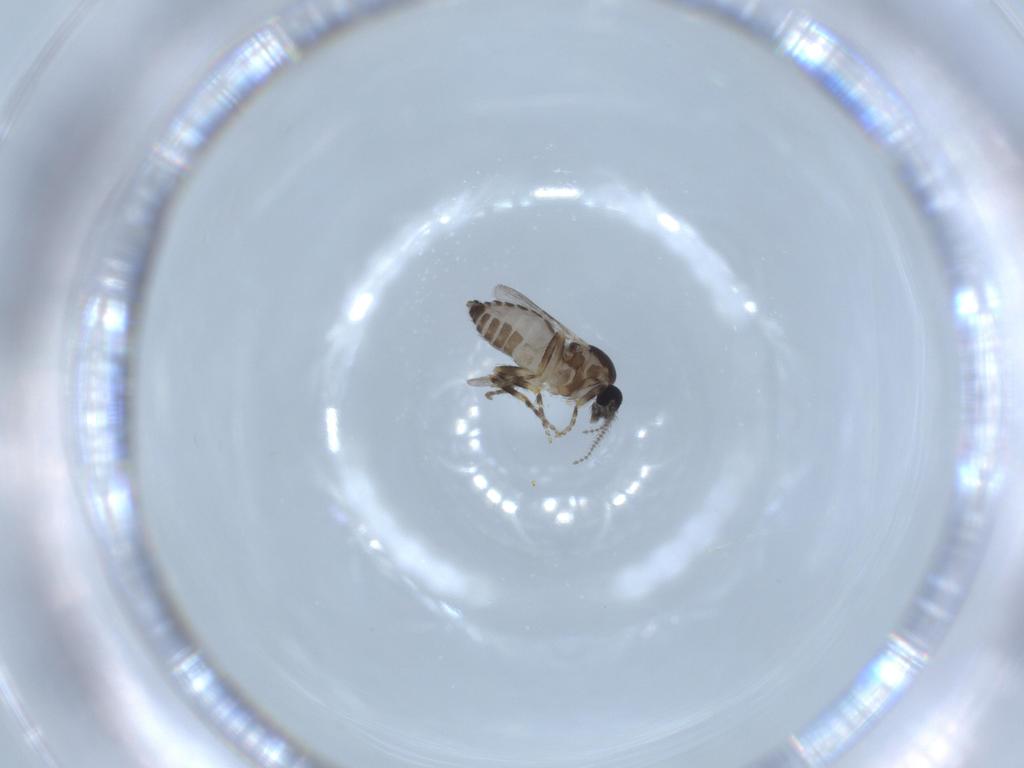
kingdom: Animalia
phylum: Arthropoda
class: Insecta
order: Diptera
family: Ceratopogonidae
